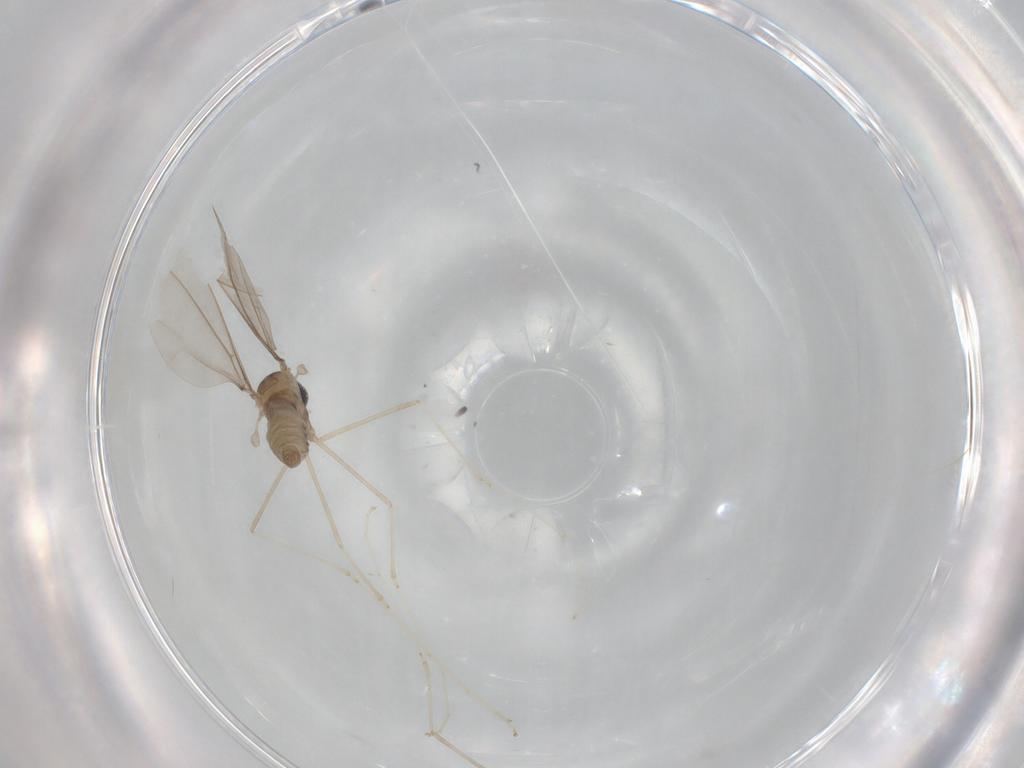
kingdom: Animalia
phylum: Arthropoda
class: Insecta
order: Diptera
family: Cecidomyiidae
